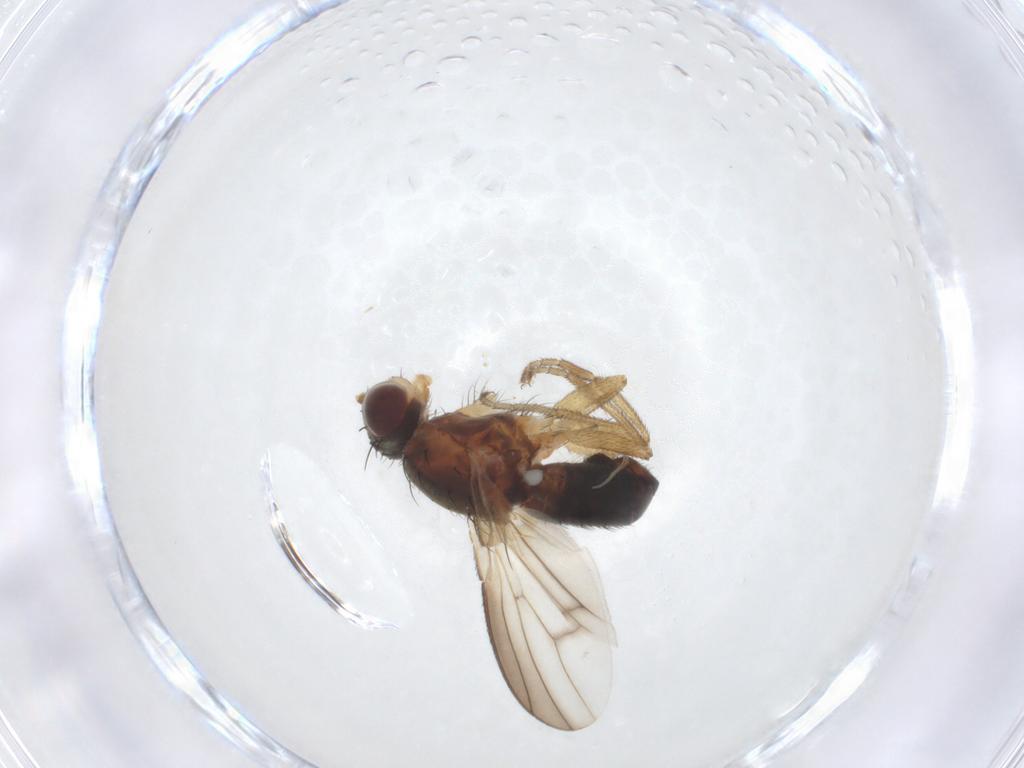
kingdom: Animalia
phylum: Arthropoda
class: Insecta
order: Diptera
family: Heleomyzidae
